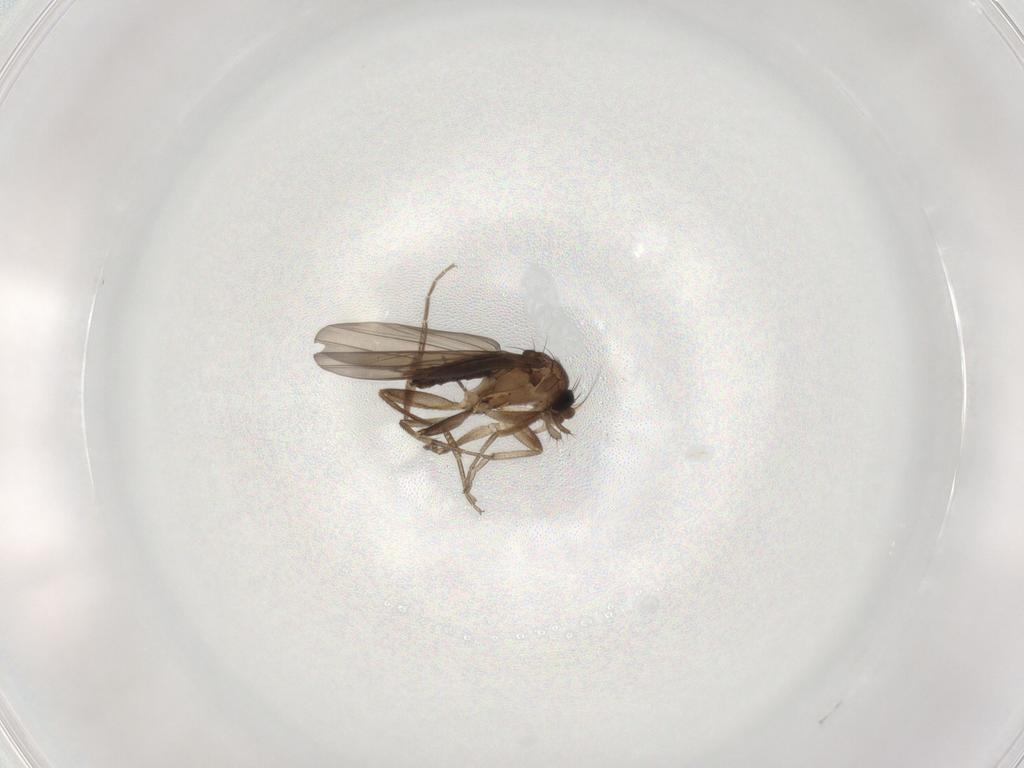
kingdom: Animalia
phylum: Arthropoda
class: Insecta
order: Diptera
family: Sciaridae
